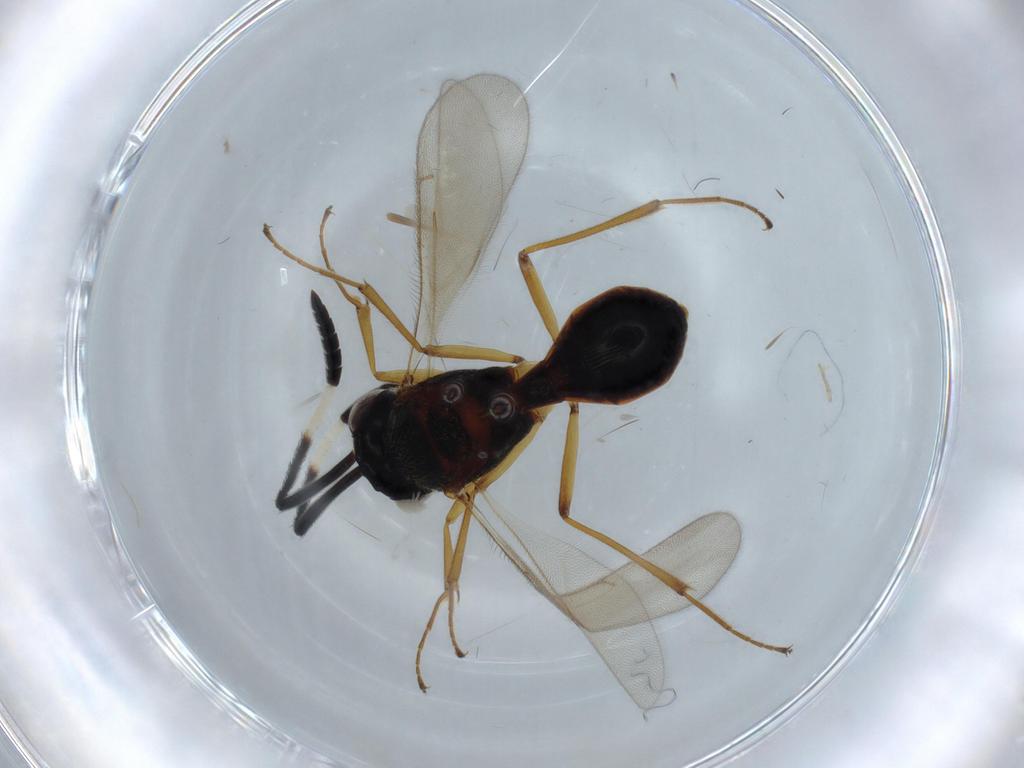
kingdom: Animalia
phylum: Arthropoda
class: Insecta
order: Hymenoptera
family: Scelionidae
